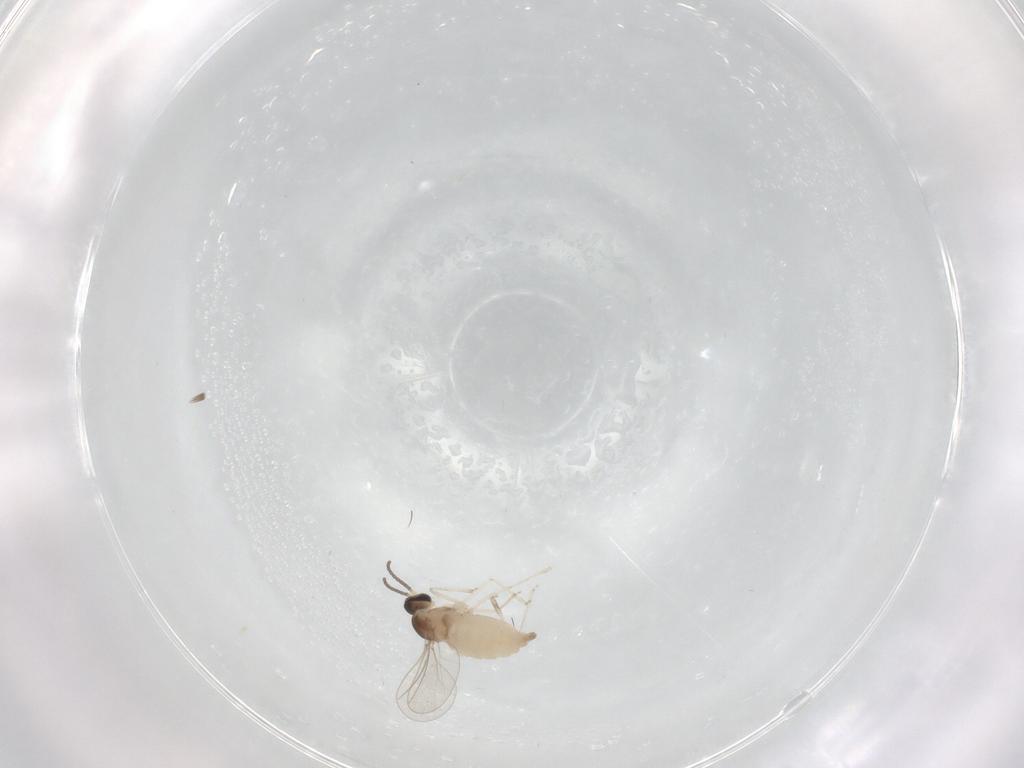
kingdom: Animalia
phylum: Arthropoda
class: Insecta
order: Diptera
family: Cecidomyiidae
